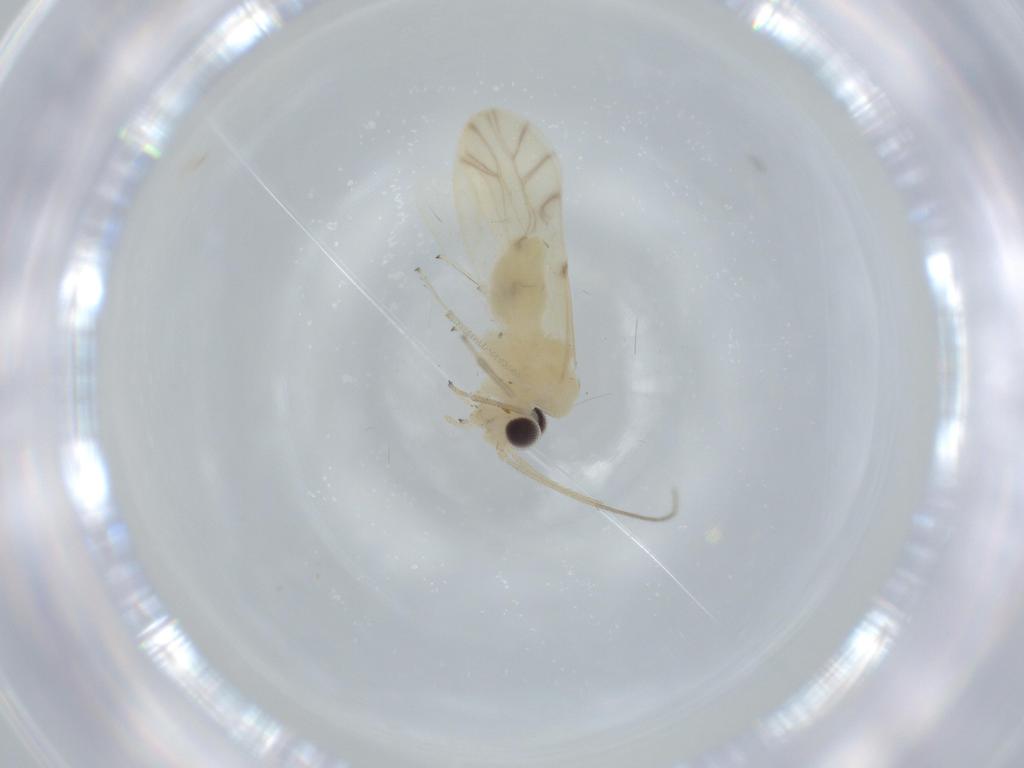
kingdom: Animalia
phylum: Arthropoda
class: Insecta
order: Psocodea
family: Caeciliusidae
